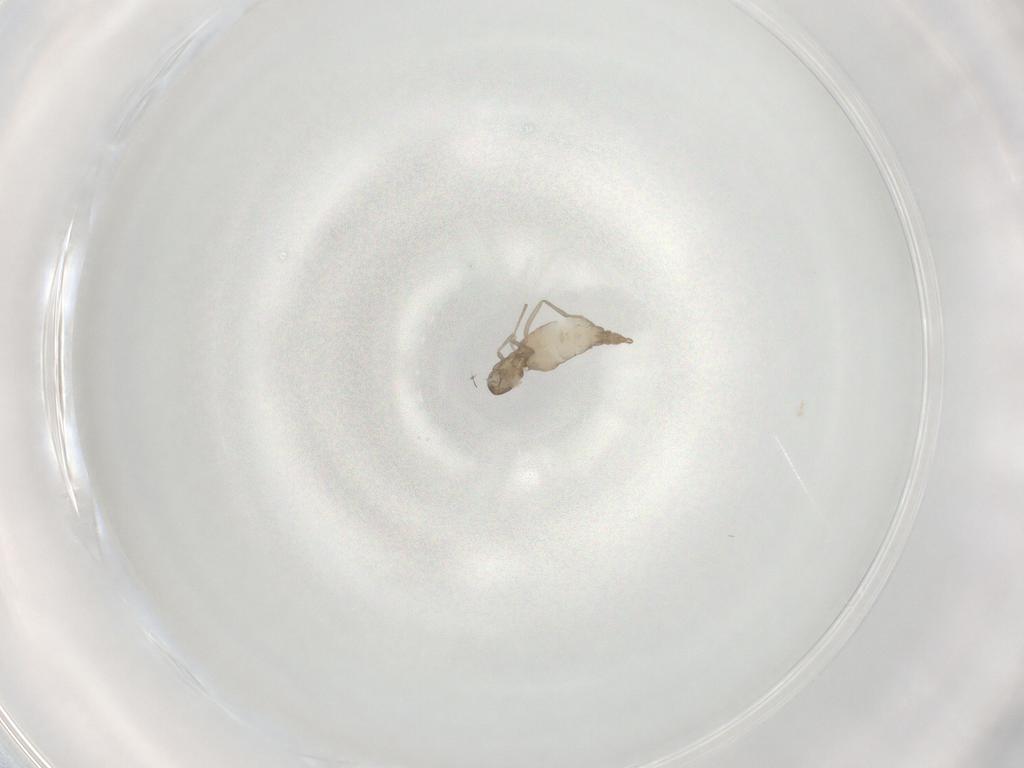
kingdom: Animalia
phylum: Arthropoda
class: Insecta
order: Diptera
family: Cecidomyiidae
